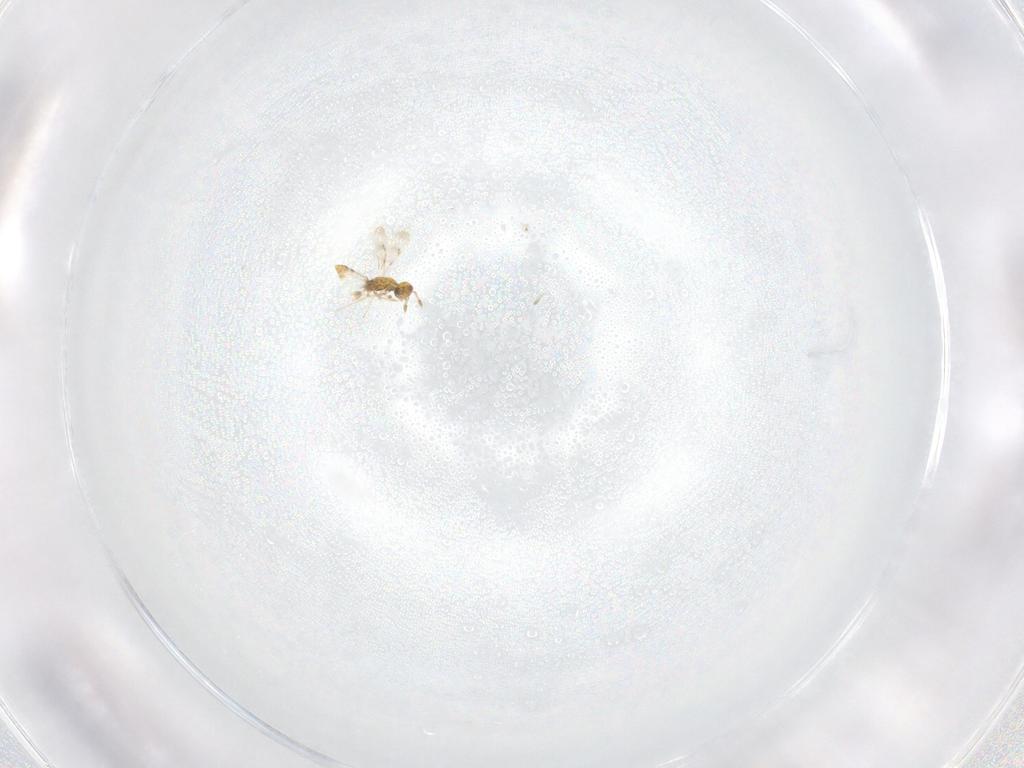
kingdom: Animalia
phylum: Arthropoda
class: Insecta
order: Hymenoptera
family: Eulophidae
